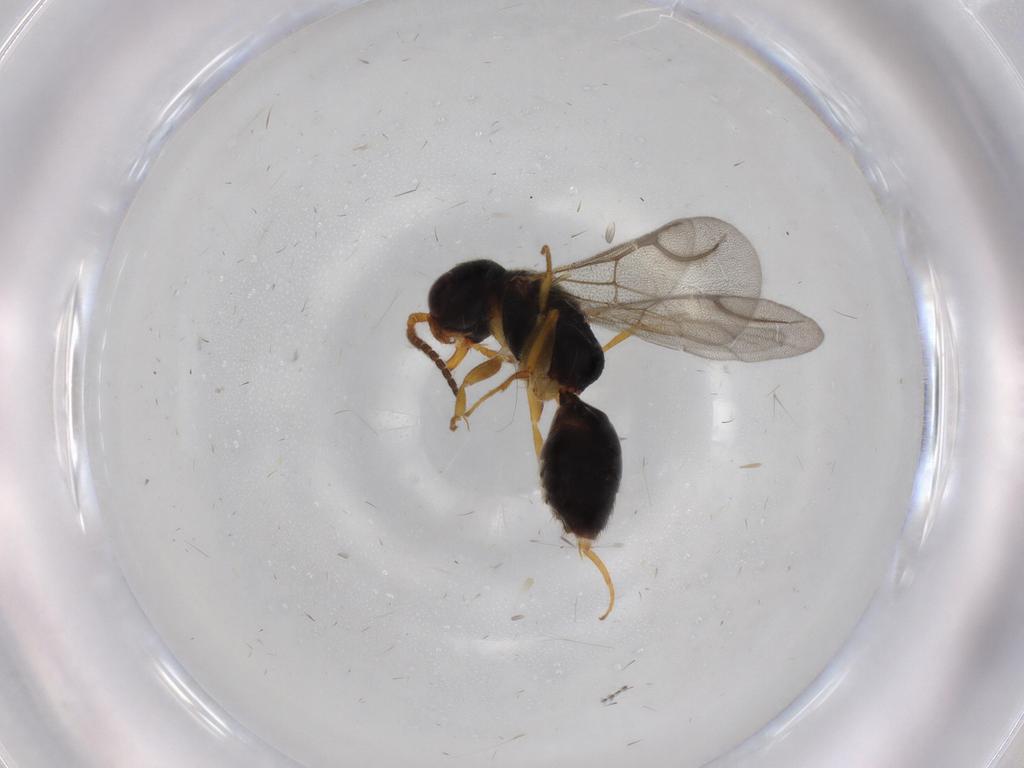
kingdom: Animalia
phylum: Arthropoda
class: Insecta
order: Hymenoptera
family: Bethylidae
